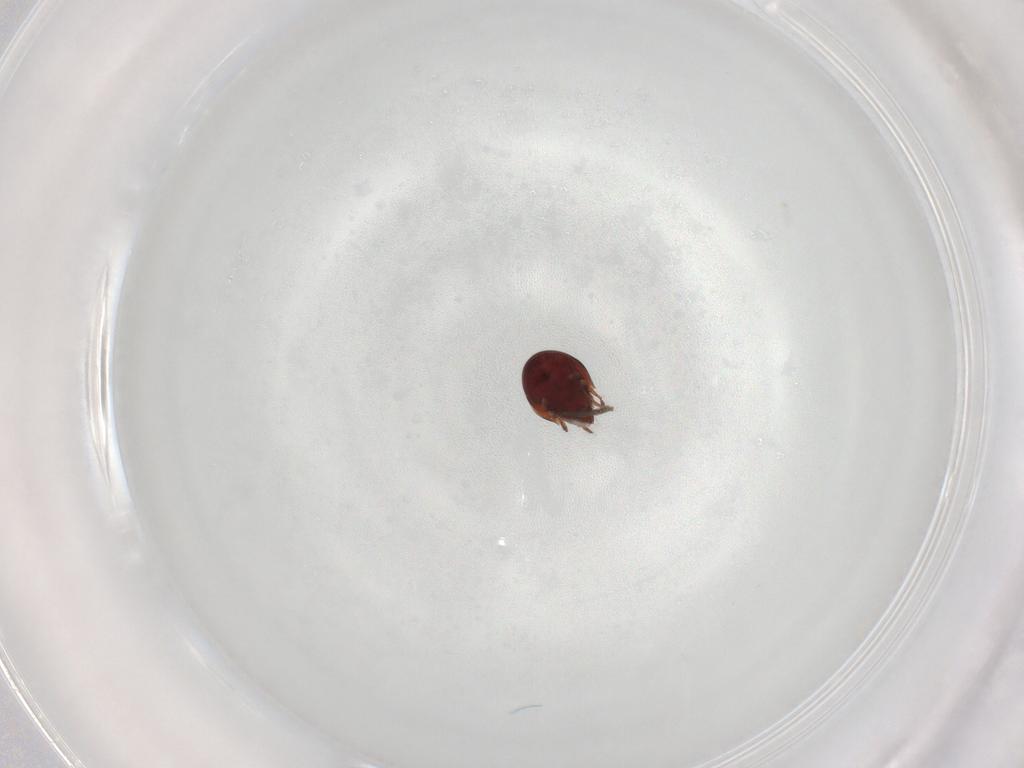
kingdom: Animalia
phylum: Arthropoda
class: Arachnida
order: Sarcoptiformes
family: Ceratozetidae
